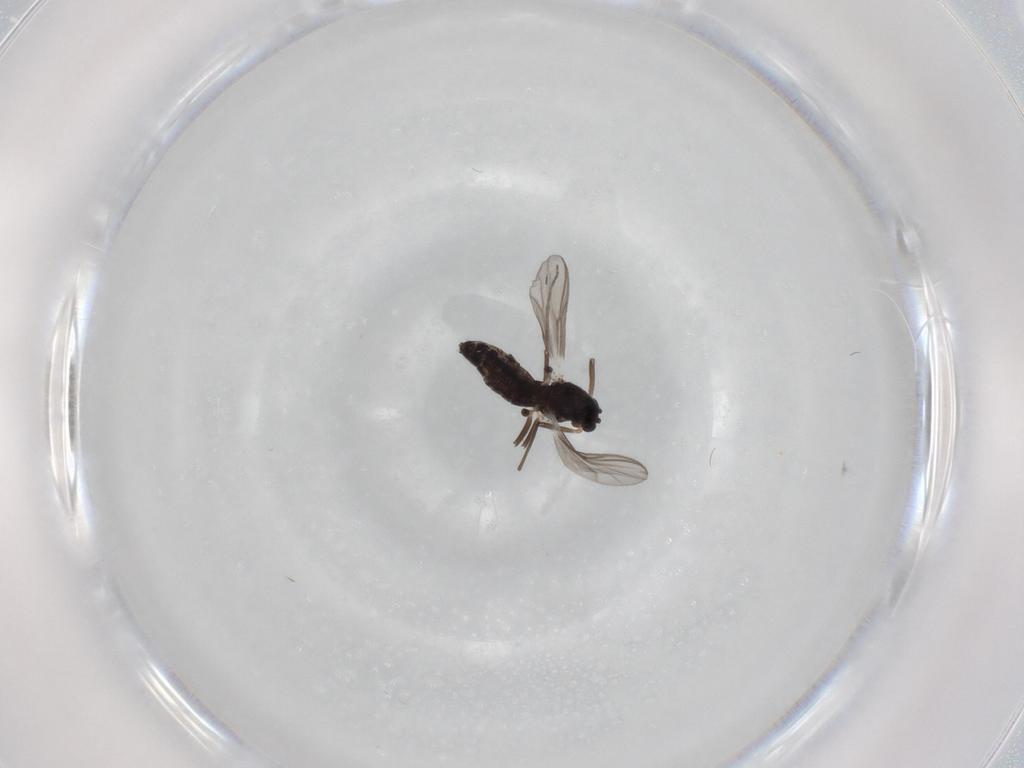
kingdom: Animalia
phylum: Arthropoda
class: Insecta
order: Diptera
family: Chironomidae
